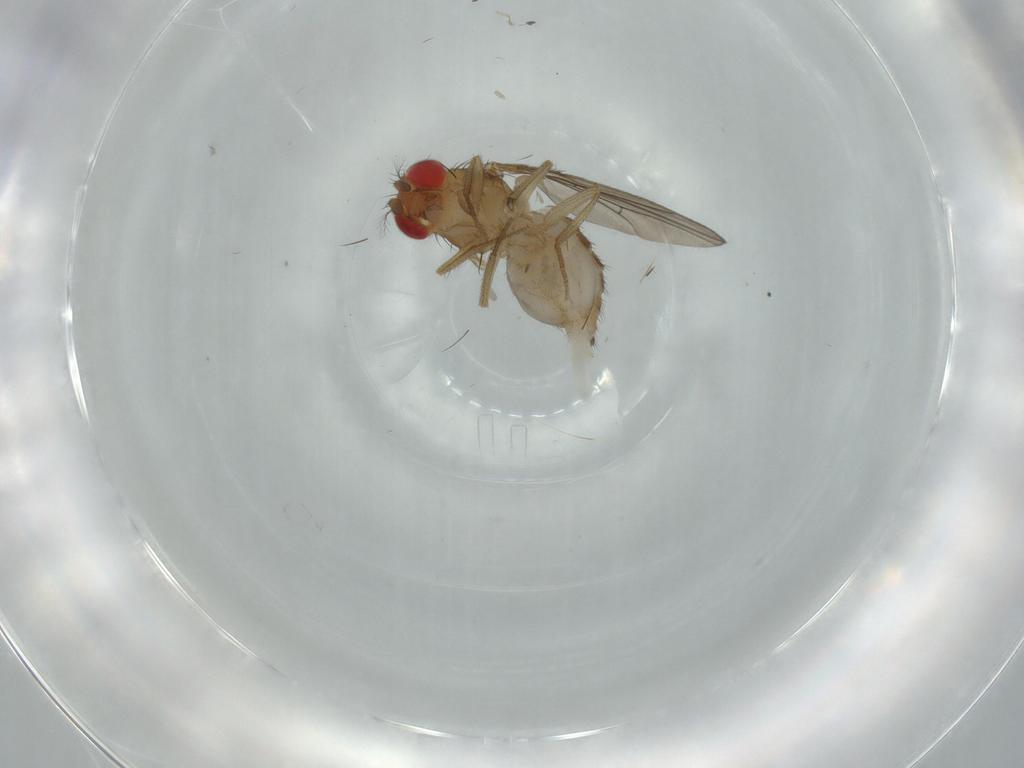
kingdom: Animalia
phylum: Arthropoda
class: Insecta
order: Diptera
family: Drosophilidae
